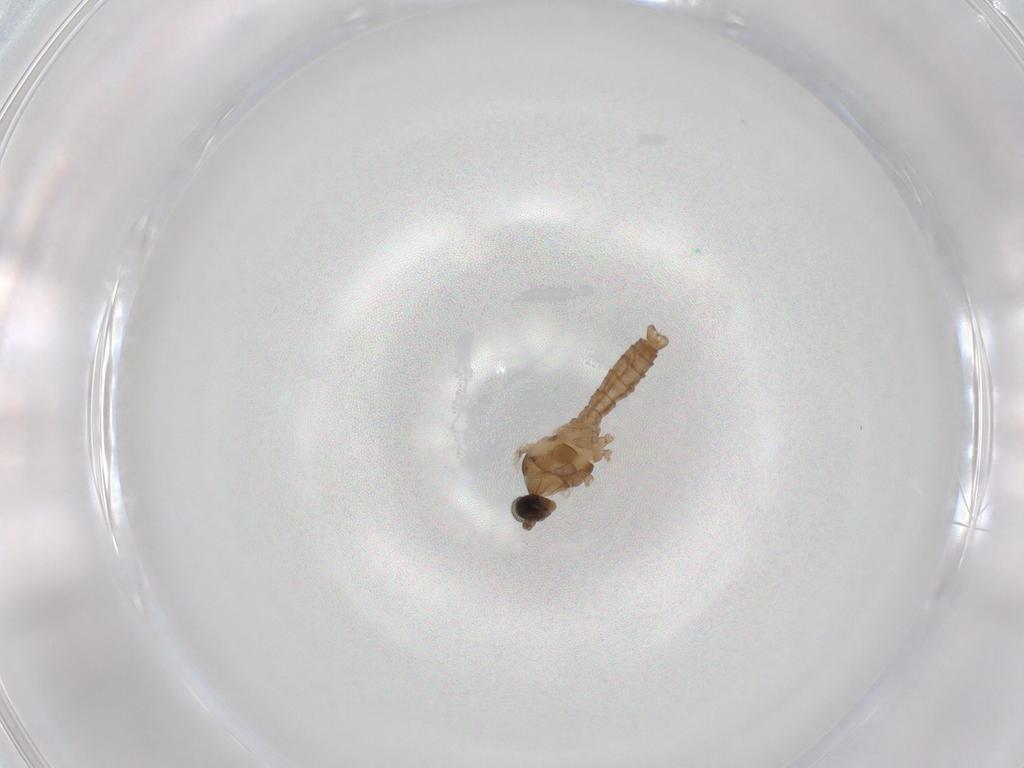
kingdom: Animalia
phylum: Arthropoda
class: Insecta
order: Diptera
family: Cecidomyiidae
